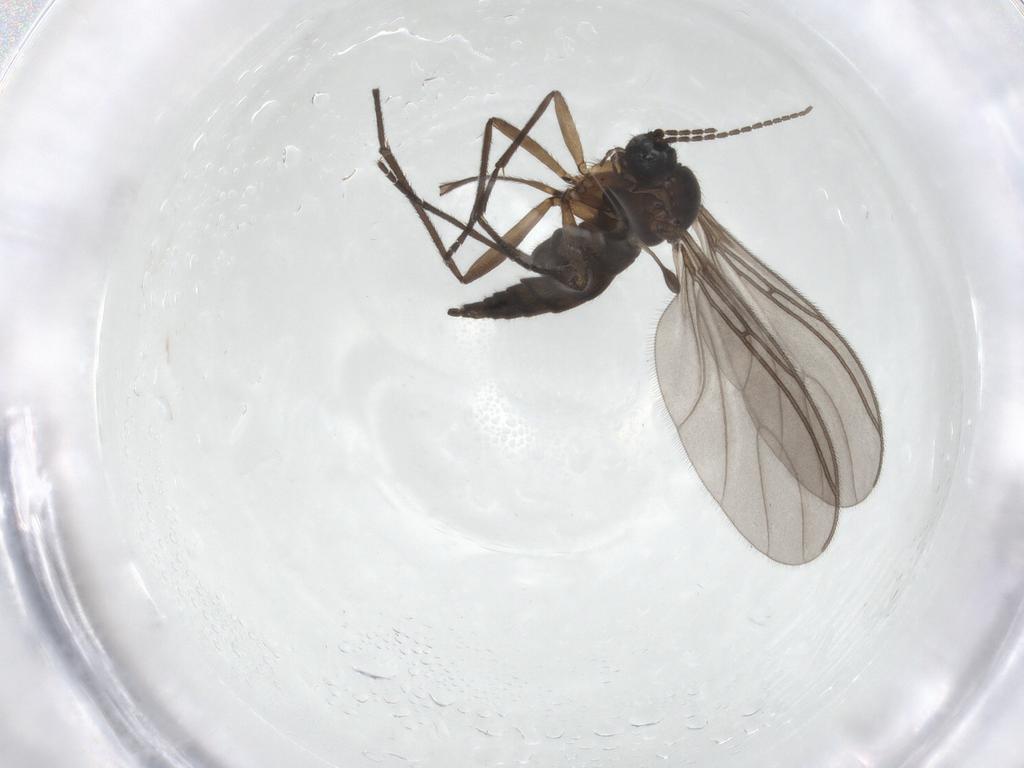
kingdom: Animalia
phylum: Arthropoda
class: Insecta
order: Diptera
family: Sciaridae
